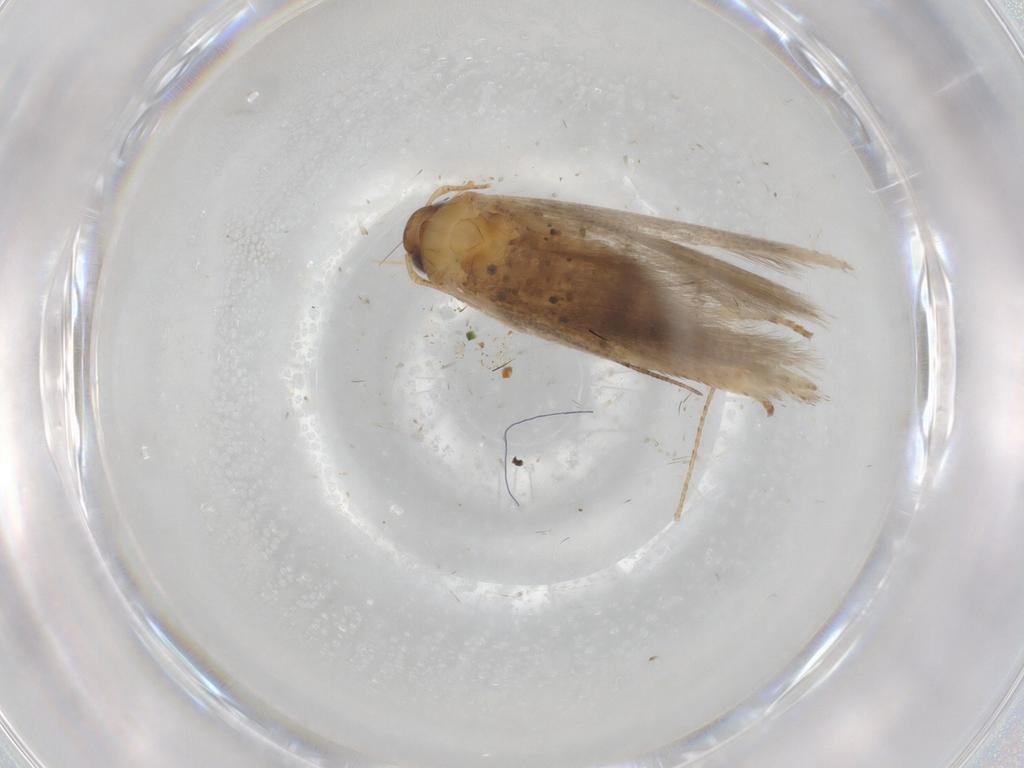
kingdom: Animalia
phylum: Arthropoda
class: Insecta
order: Lepidoptera
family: Gelechiidae
